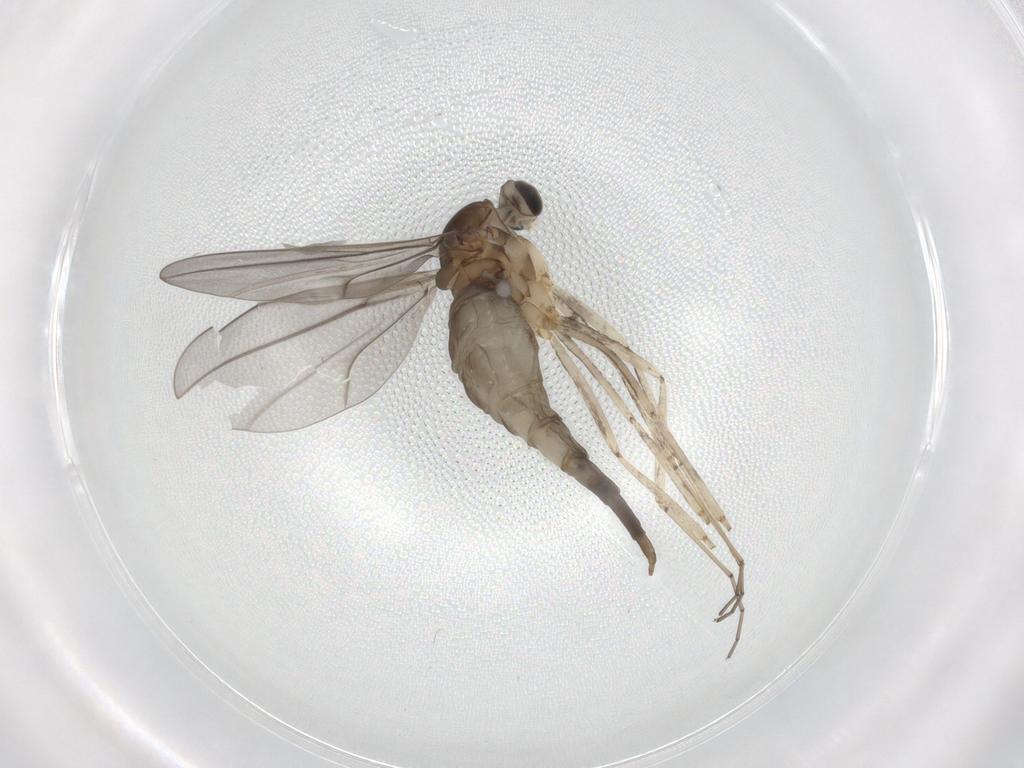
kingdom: Animalia
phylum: Arthropoda
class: Insecta
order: Diptera
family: Cecidomyiidae
